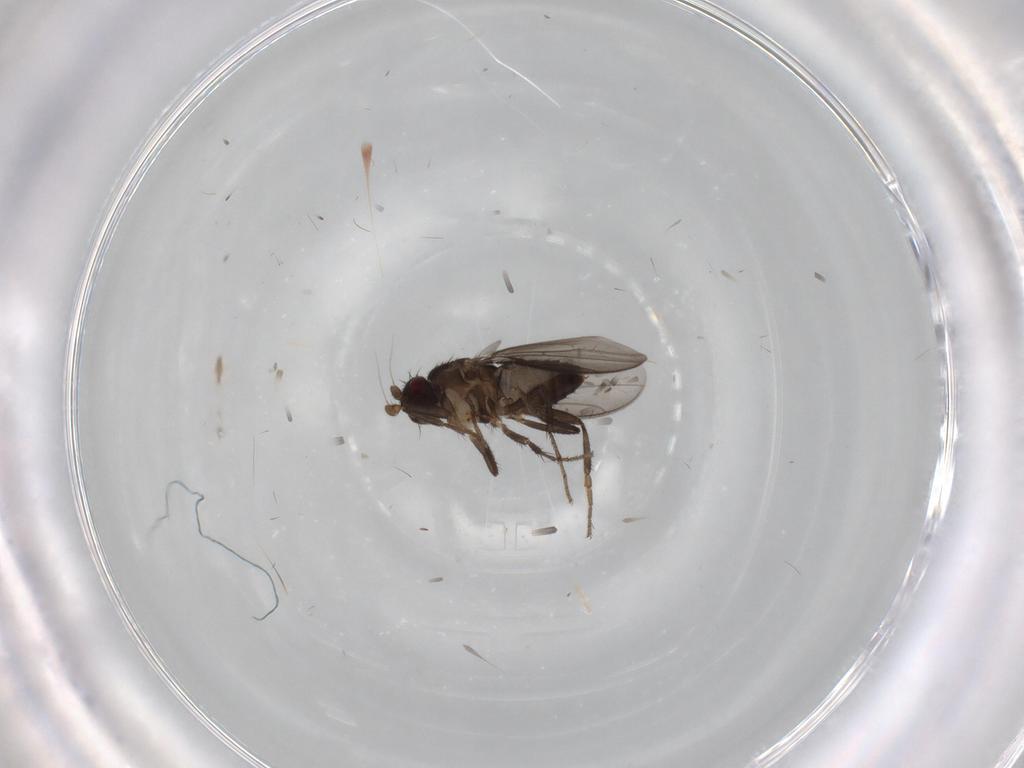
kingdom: Animalia
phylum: Arthropoda
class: Insecta
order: Diptera
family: Sphaeroceridae
